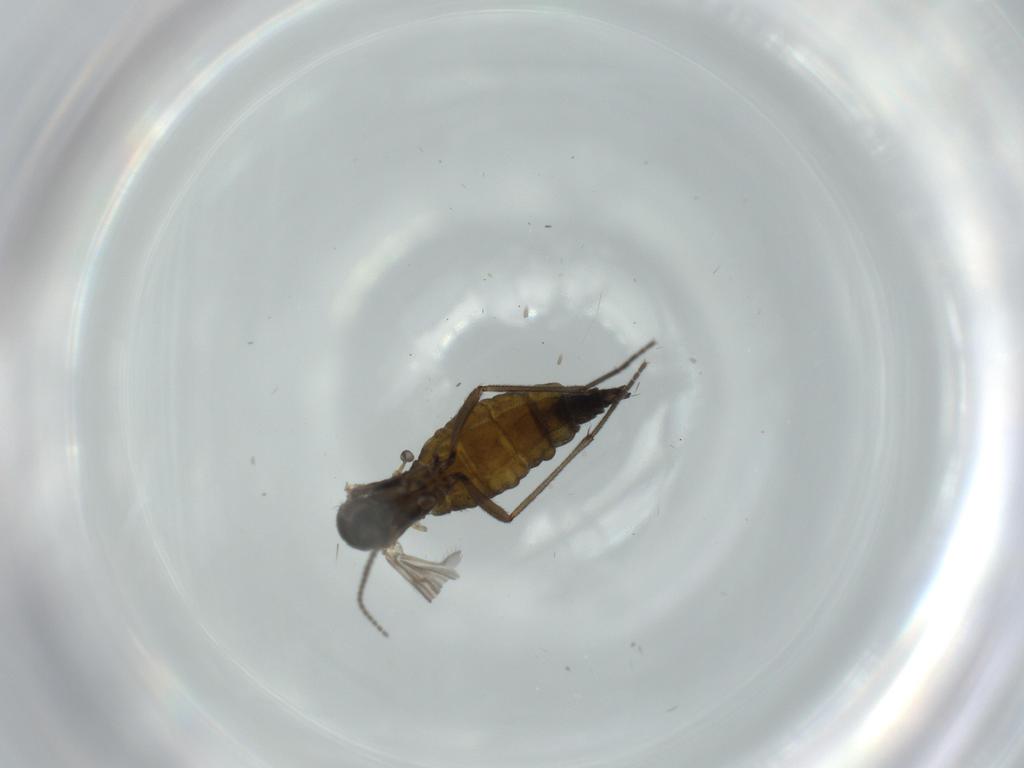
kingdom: Animalia
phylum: Arthropoda
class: Insecta
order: Diptera
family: Sciaridae
